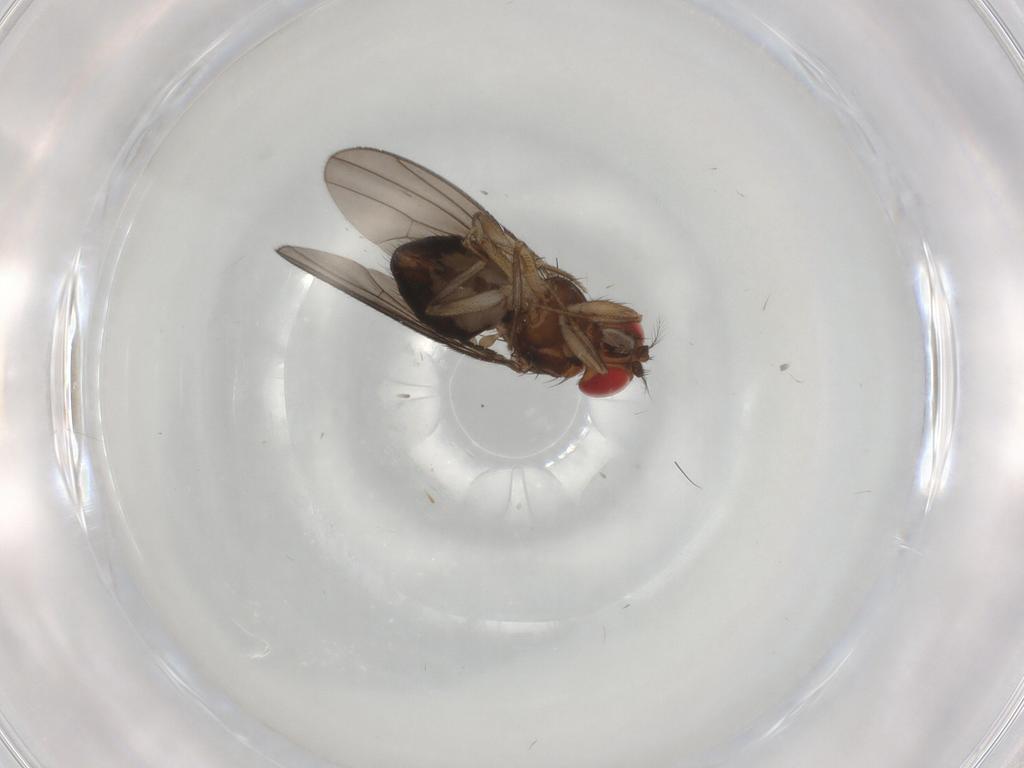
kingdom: Animalia
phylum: Arthropoda
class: Insecta
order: Diptera
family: Drosophilidae
